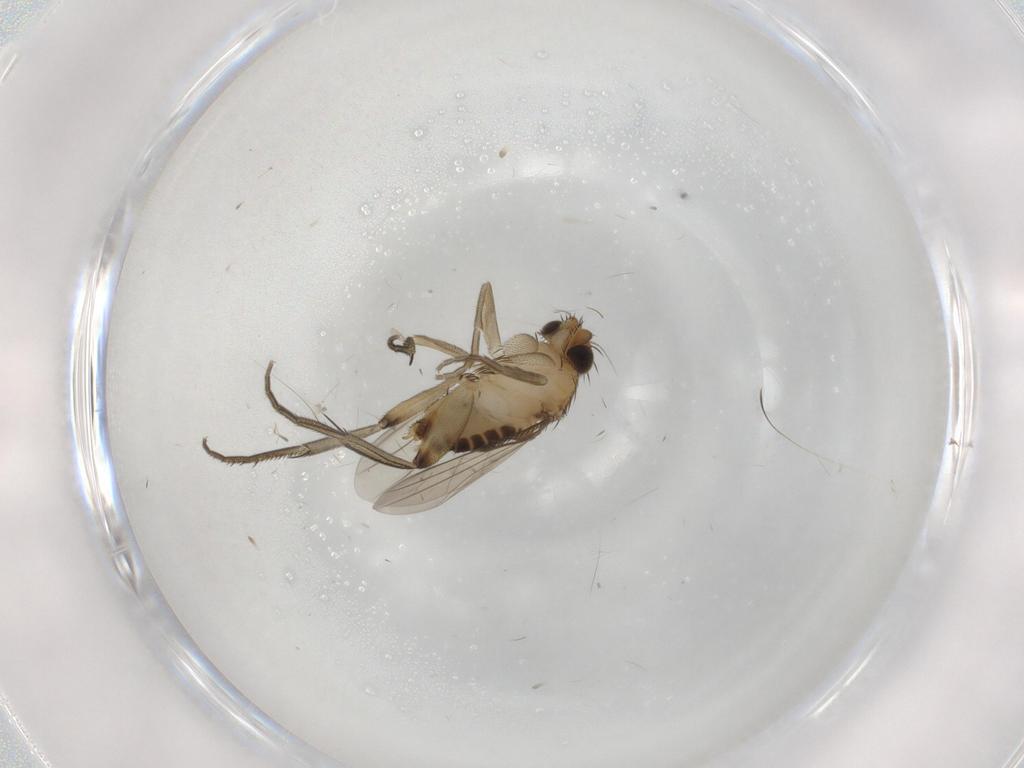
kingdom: Animalia
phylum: Arthropoda
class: Insecta
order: Diptera
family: Phoridae
